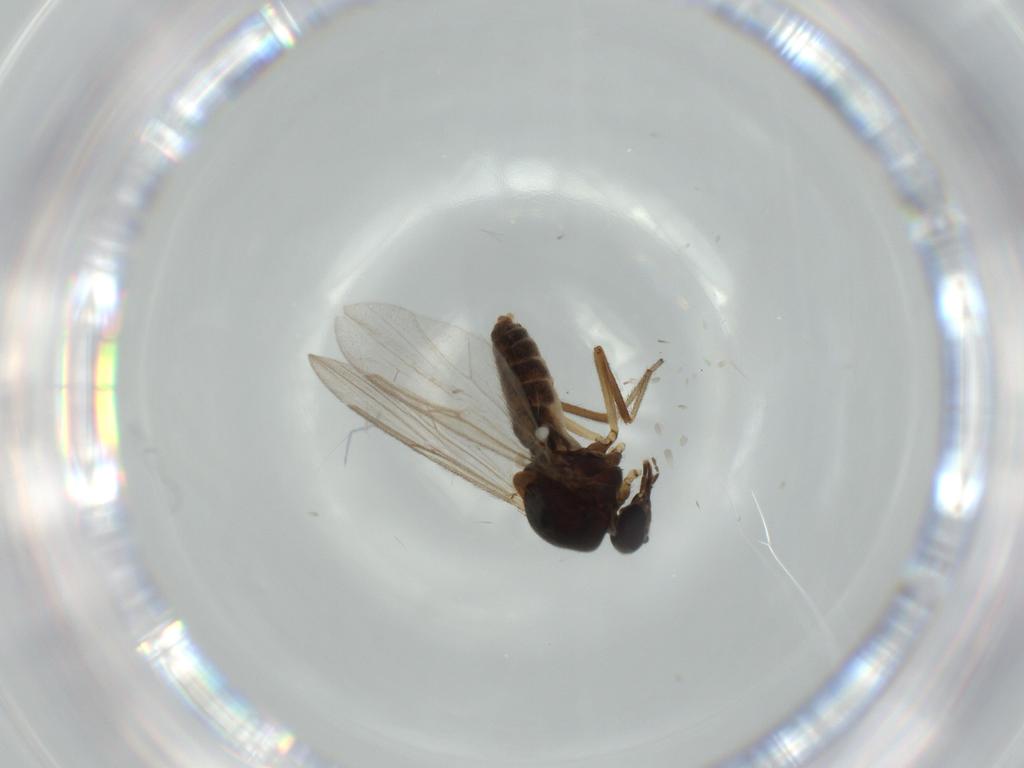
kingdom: Animalia
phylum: Arthropoda
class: Insecta
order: Diptera
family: Ceratopogonidae
